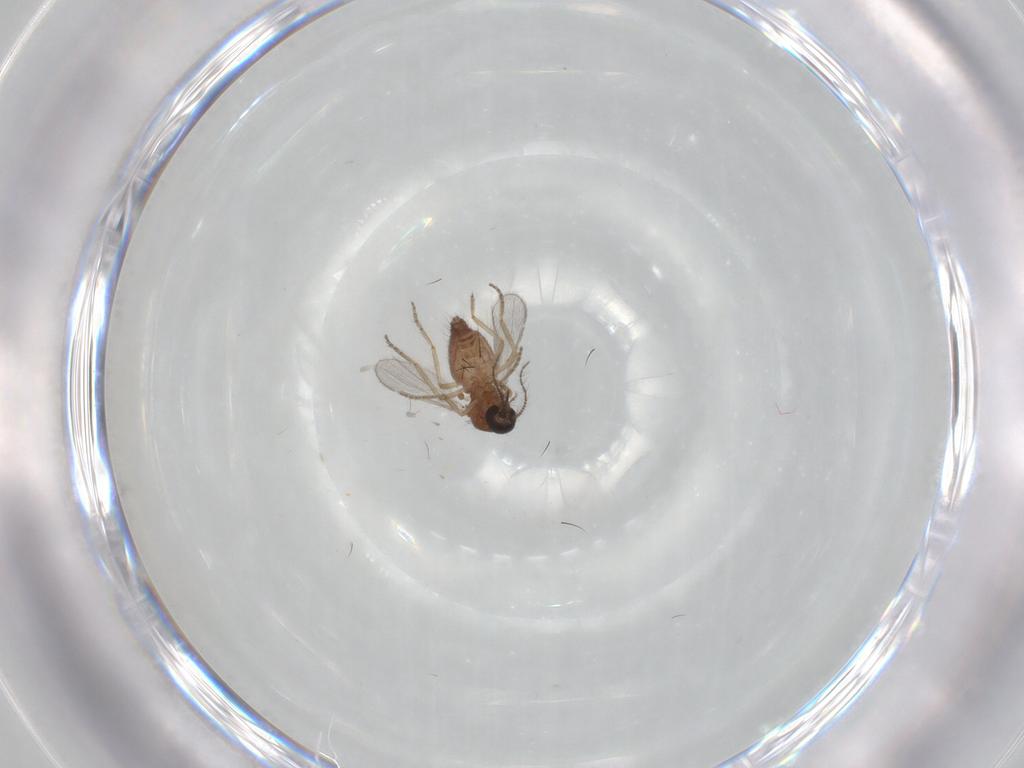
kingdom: Animalia
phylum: Arthropoda
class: Insecta
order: Diptera
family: Ceratopogonidae
